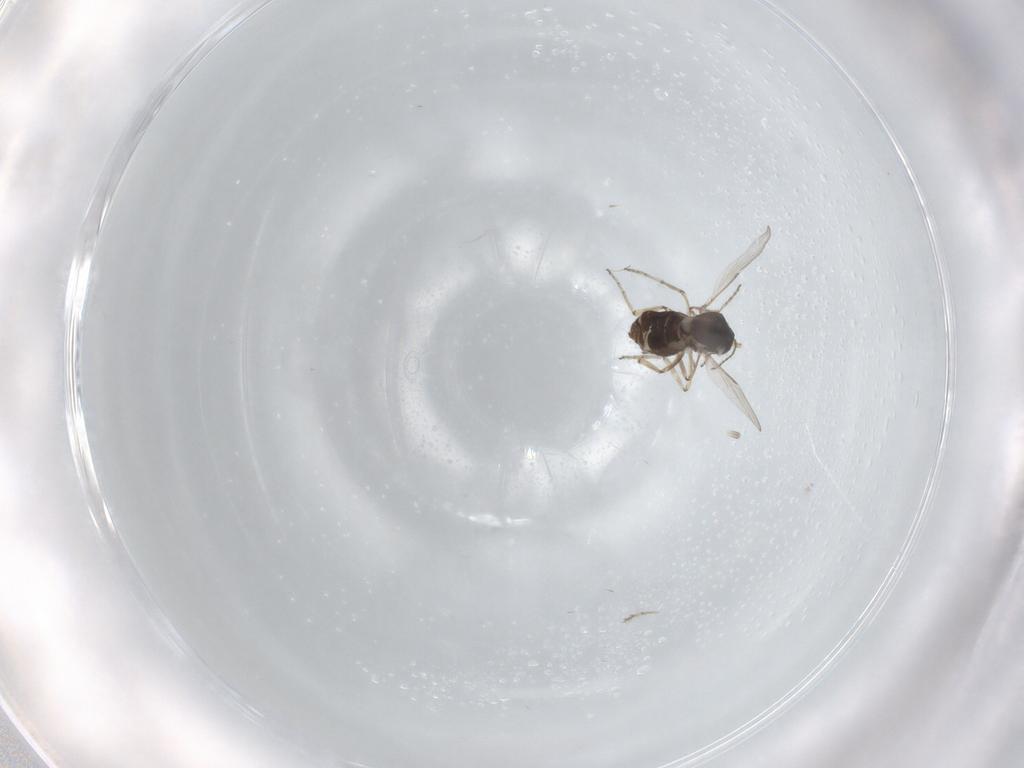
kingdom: Animalia
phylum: Arthropoda
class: Insecta
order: Diptera
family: Ceratopogonidae
